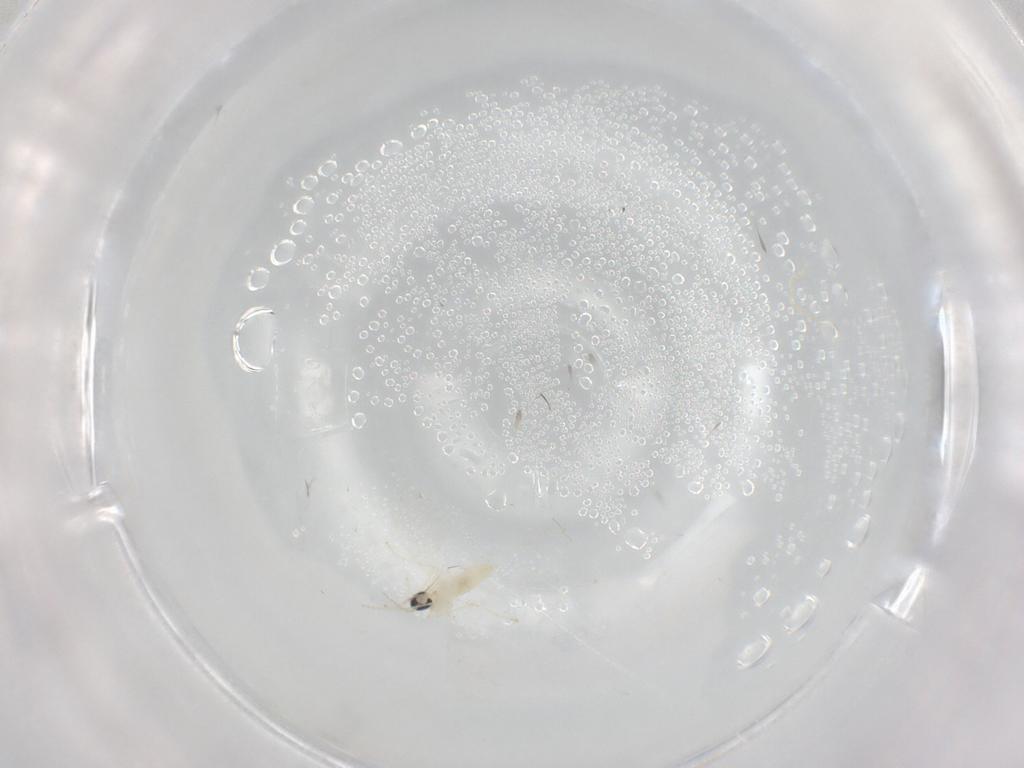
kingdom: Animalia
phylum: Arthropoda
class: Insecta
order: Diptera
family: Cecidomyiidae
